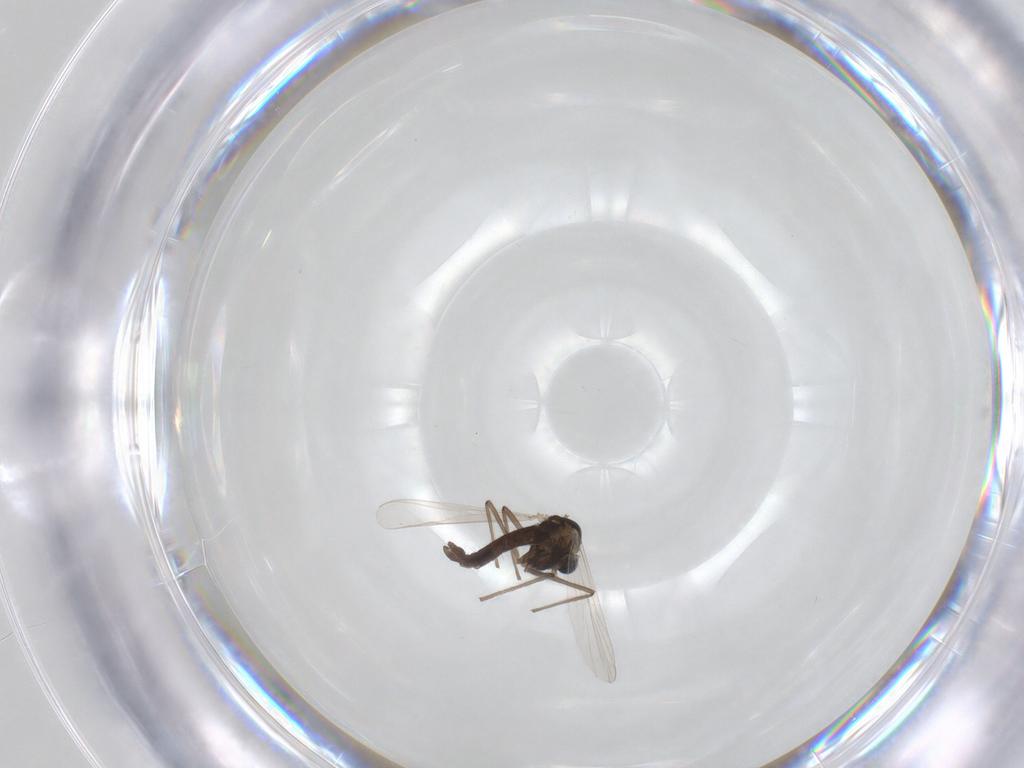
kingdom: Animalia
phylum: Arthropoda
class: Insecta
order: Diptera
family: Chironomidae
